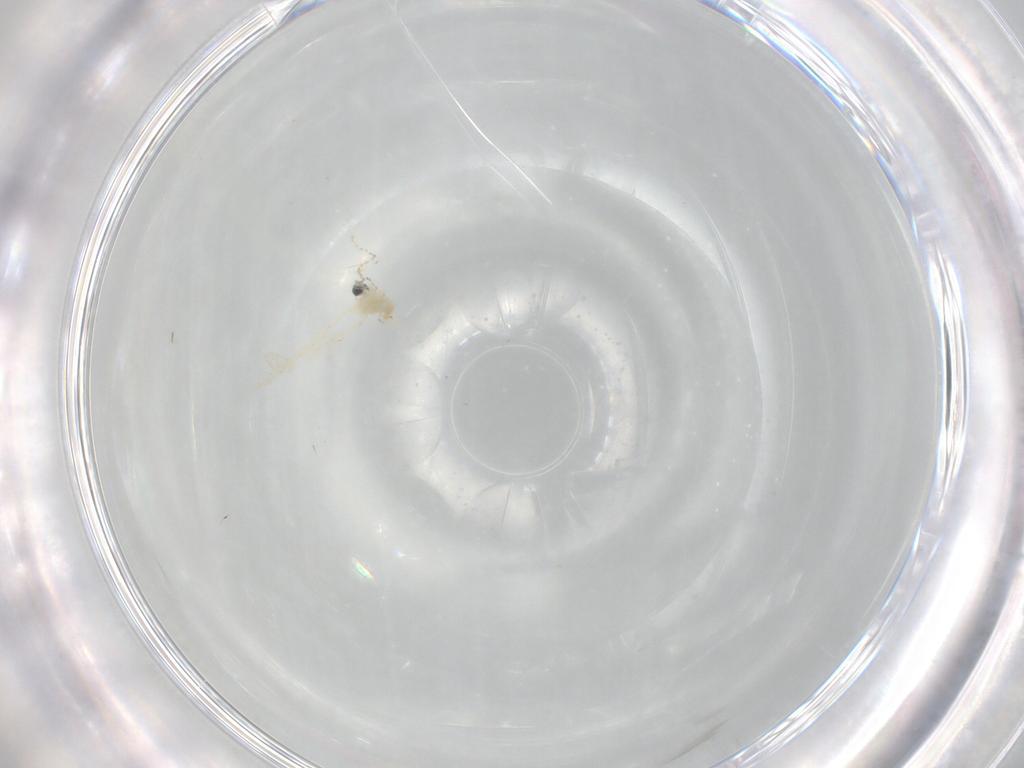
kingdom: Animalia
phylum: Arthropoda
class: Insecta
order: Diptera
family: Cecidomyiidae
